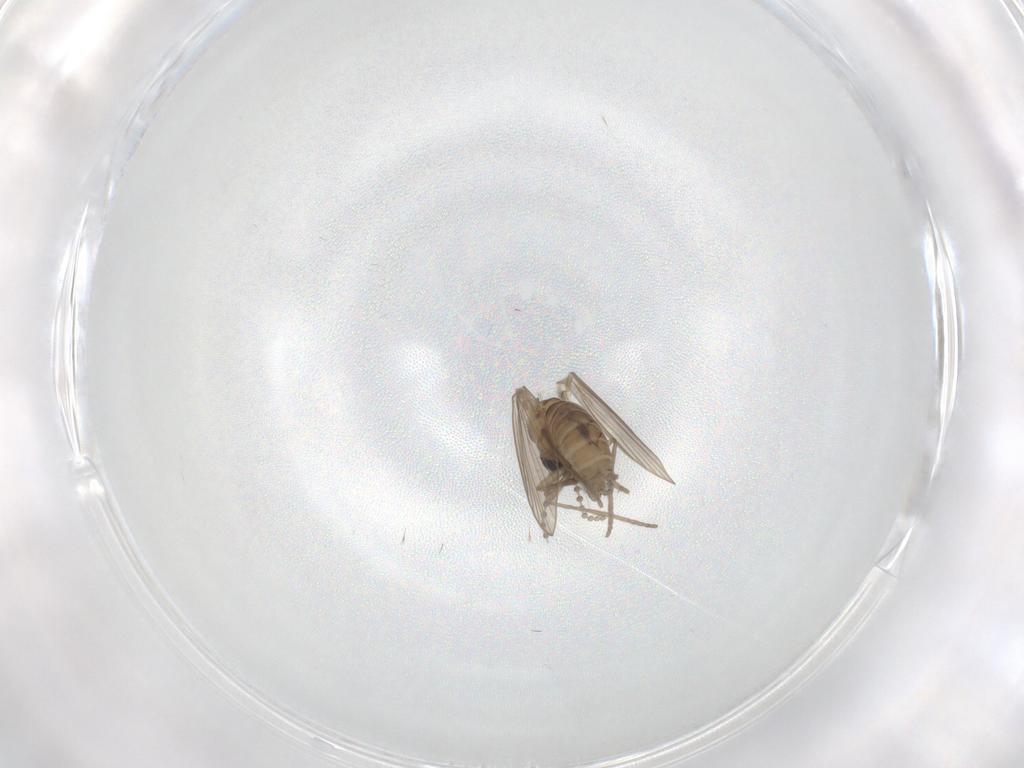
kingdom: Animalia
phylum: Arthropoda
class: Insecta
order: Diptera
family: Psychodidae
